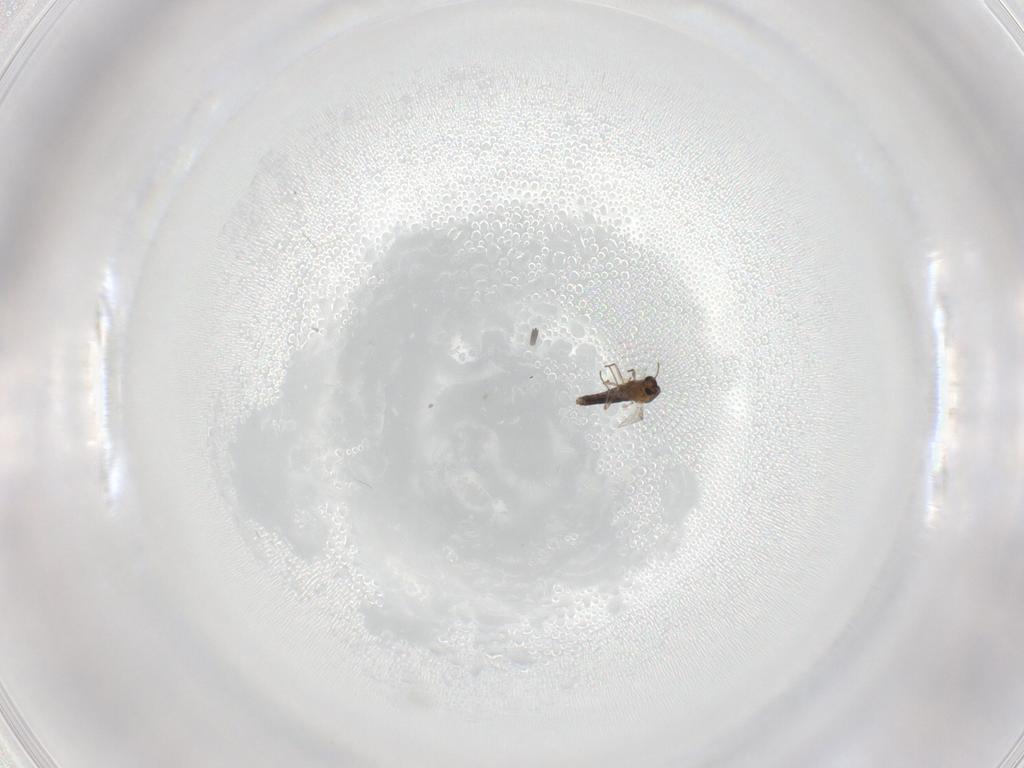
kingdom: Animalia
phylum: Arthropoda
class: Insecta
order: Diptera
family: Chironomidae
